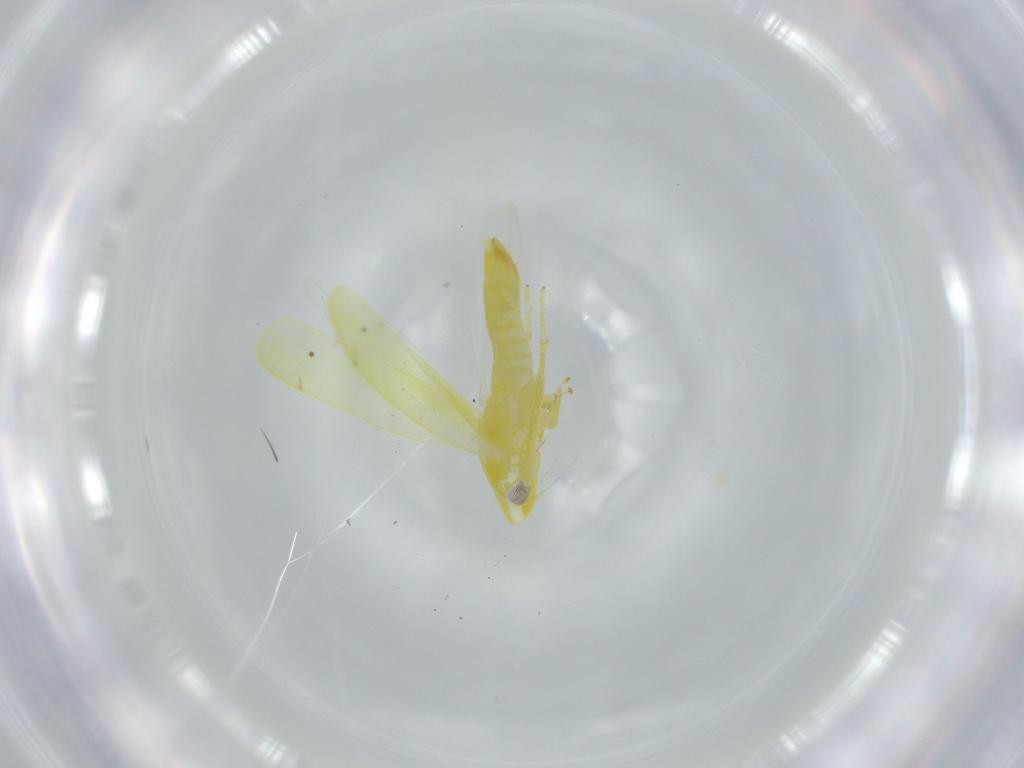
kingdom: Animalia
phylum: Arthropoda
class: Insecta
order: Hemiptera
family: Cicadellidae
